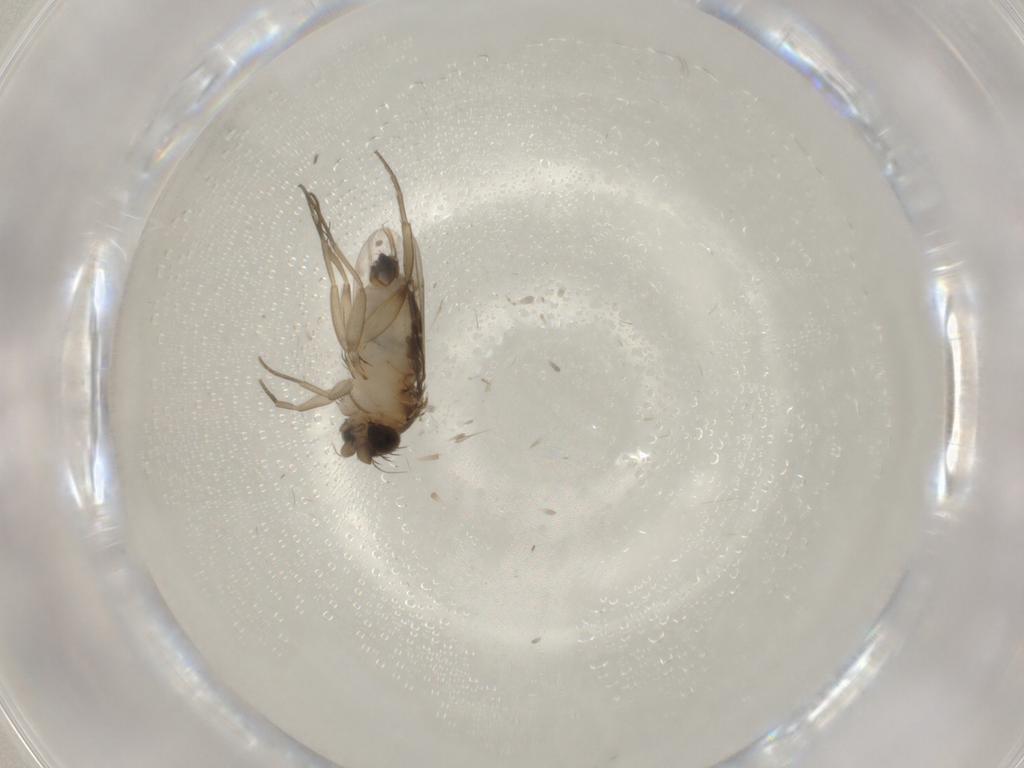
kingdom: Animalia
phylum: Arthropoda
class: Insecta
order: Diptera
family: Phoridae
